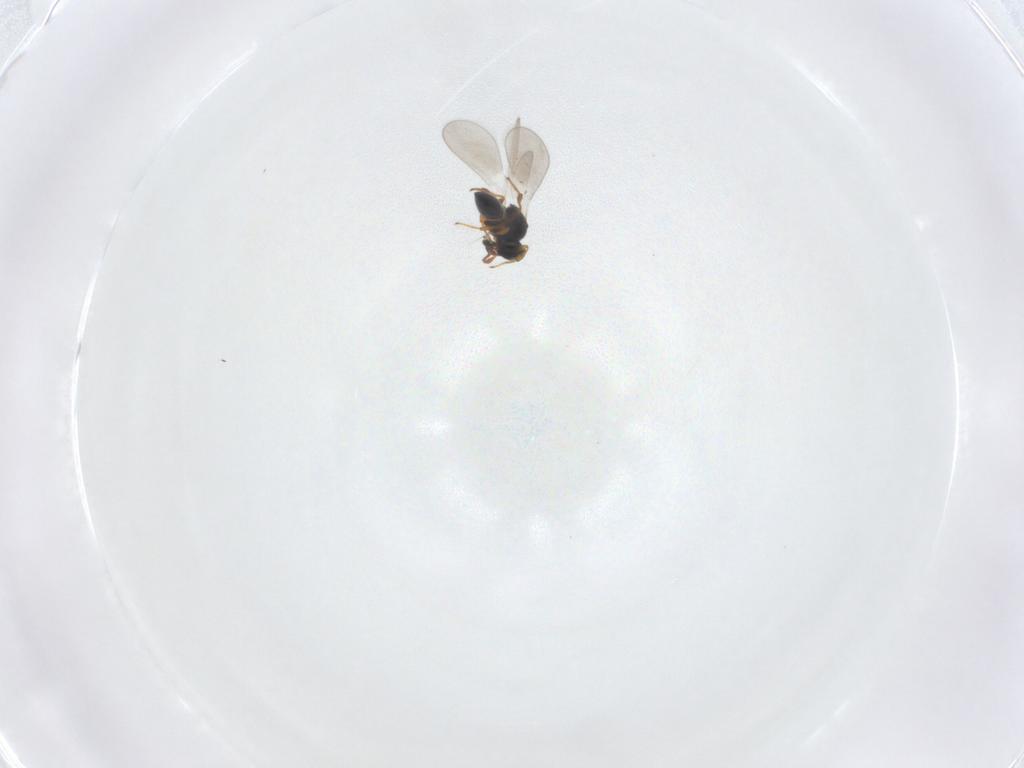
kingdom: Animalia
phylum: Arthropoda
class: Insecta
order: Hymenoptera
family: Platygastridae
